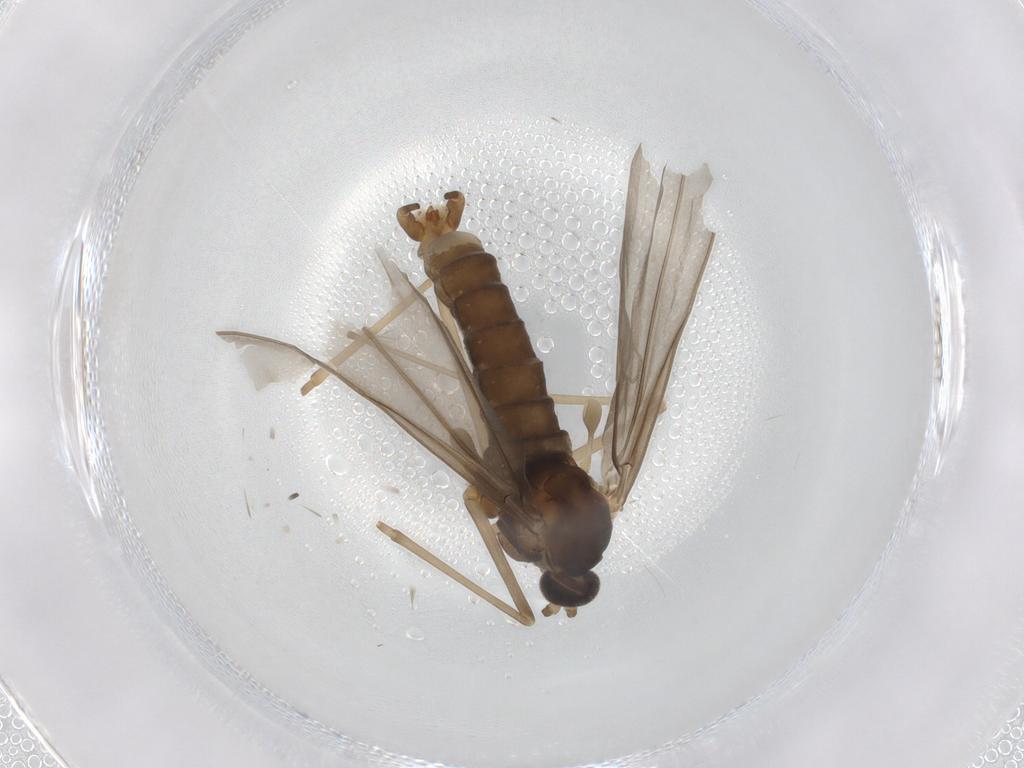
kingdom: Animalia
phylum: Arthropoda
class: Insecta
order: Diptera
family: Cecidomyiidae
